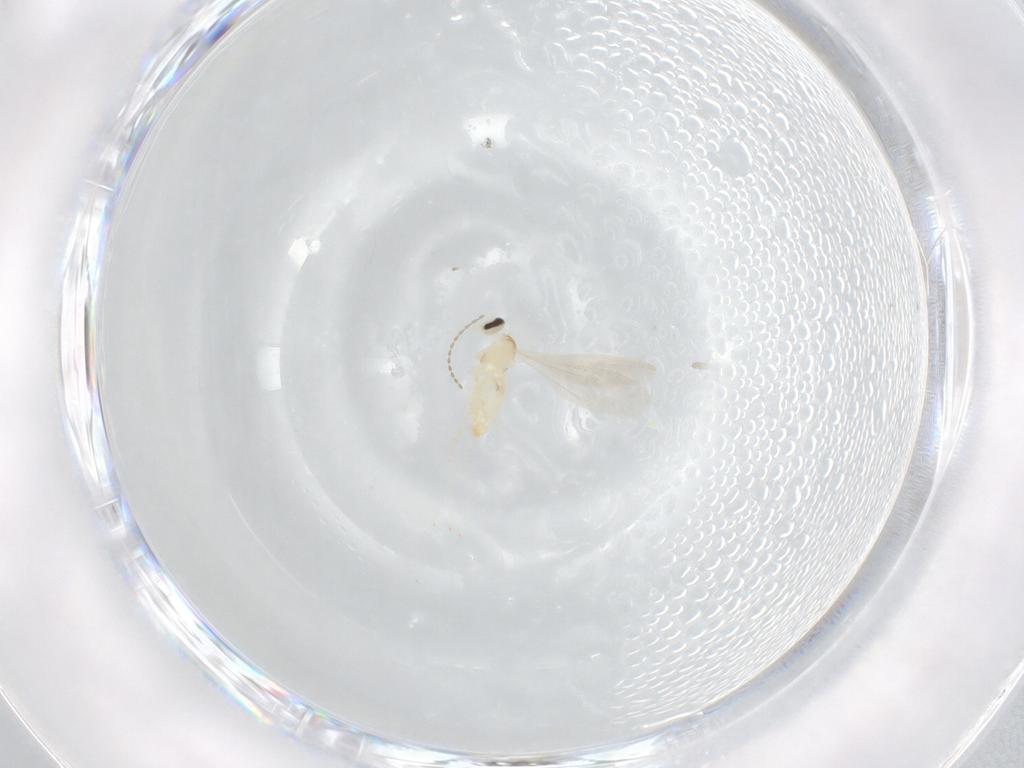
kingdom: Animalia
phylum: Arthropoda
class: Insecta
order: Diptera
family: Cecidomyiidae
